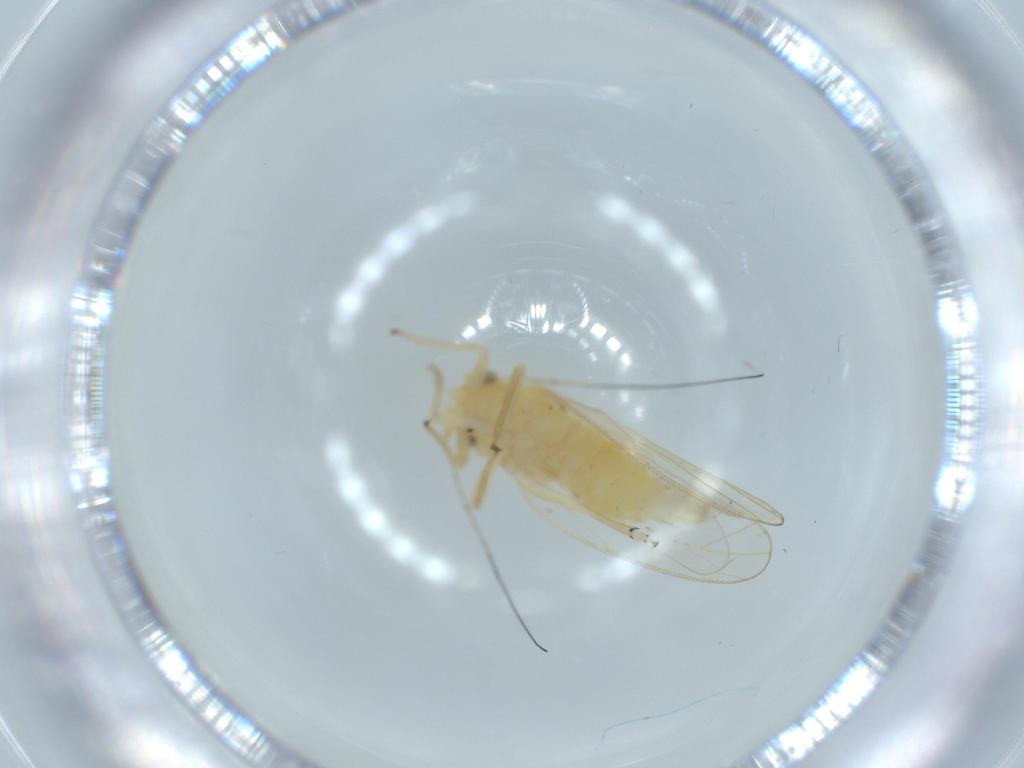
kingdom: Animalia
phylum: Arthropoda
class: Insecta
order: Hemiptera
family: Psyllidae
